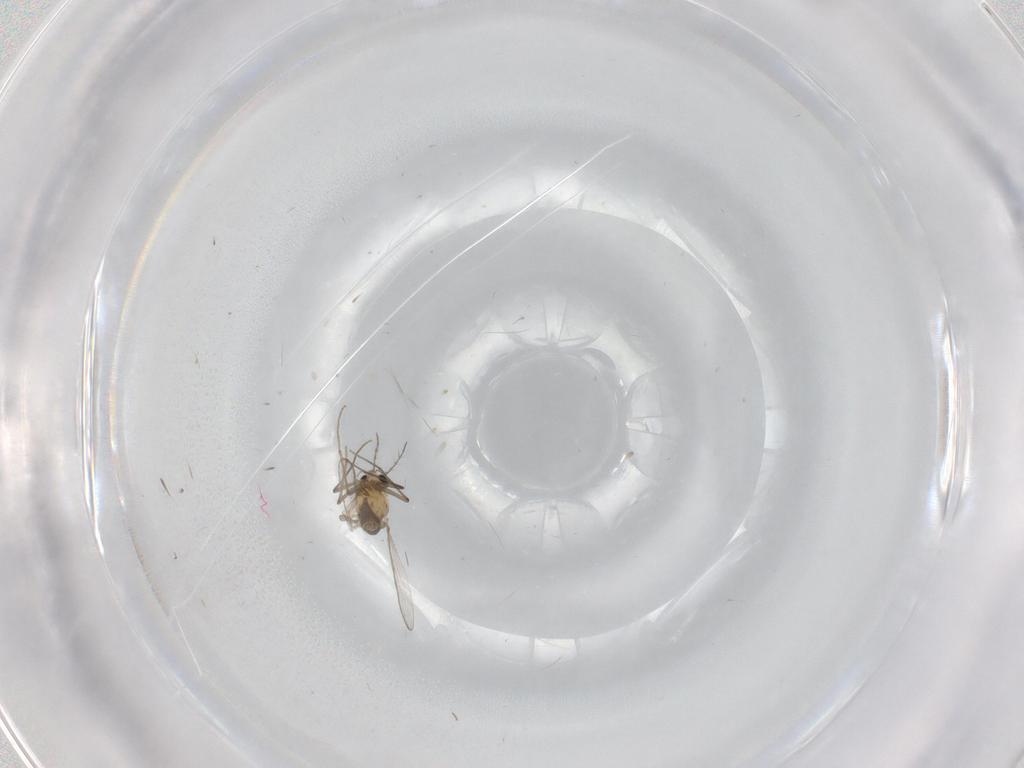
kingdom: Animalia
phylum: Arthropoda
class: Insecta
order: Diptera
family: Chironomidae
